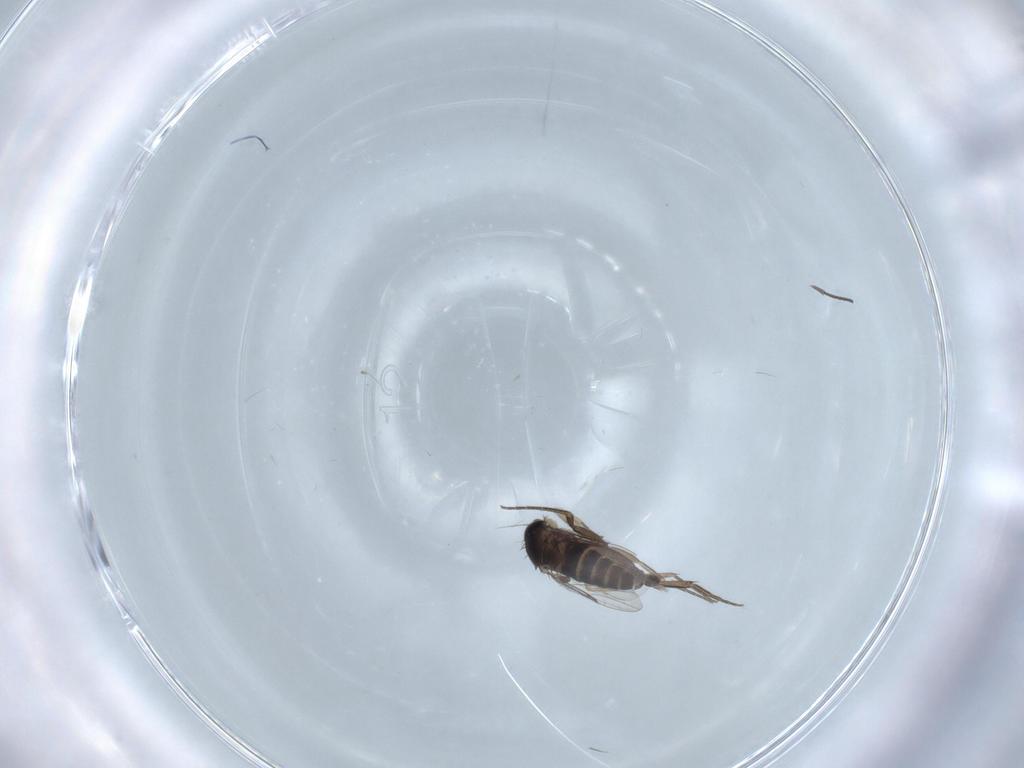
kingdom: Animalia
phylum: Arthropoda
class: Insecta
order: Diptera
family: Phoridae
